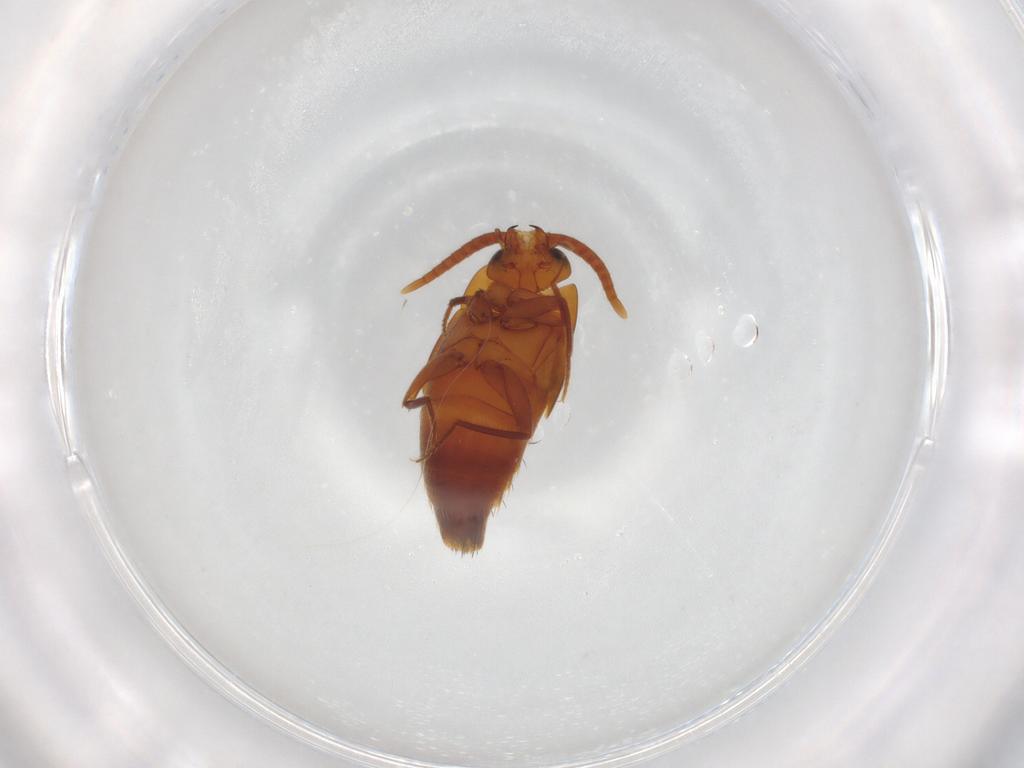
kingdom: Animalia
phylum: Arthropoda
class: Insecta
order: Coleoptera
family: Staphylinidae
